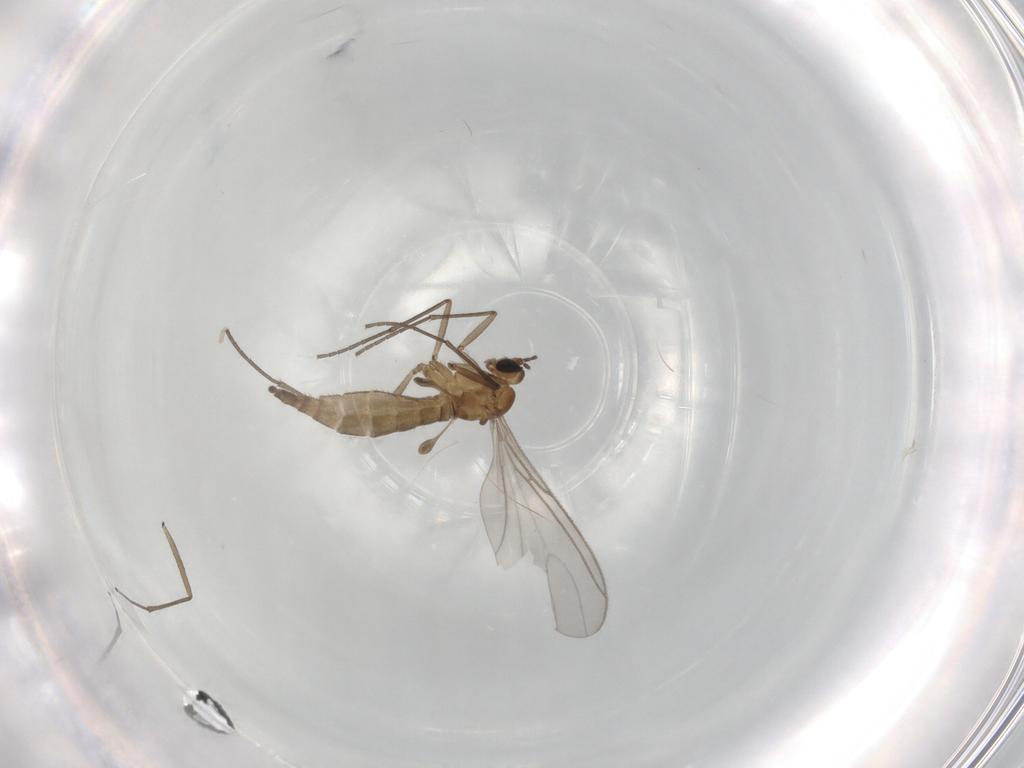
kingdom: Animalia
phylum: Arthropoda
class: Insecta
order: Diptera
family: Sciaridae
